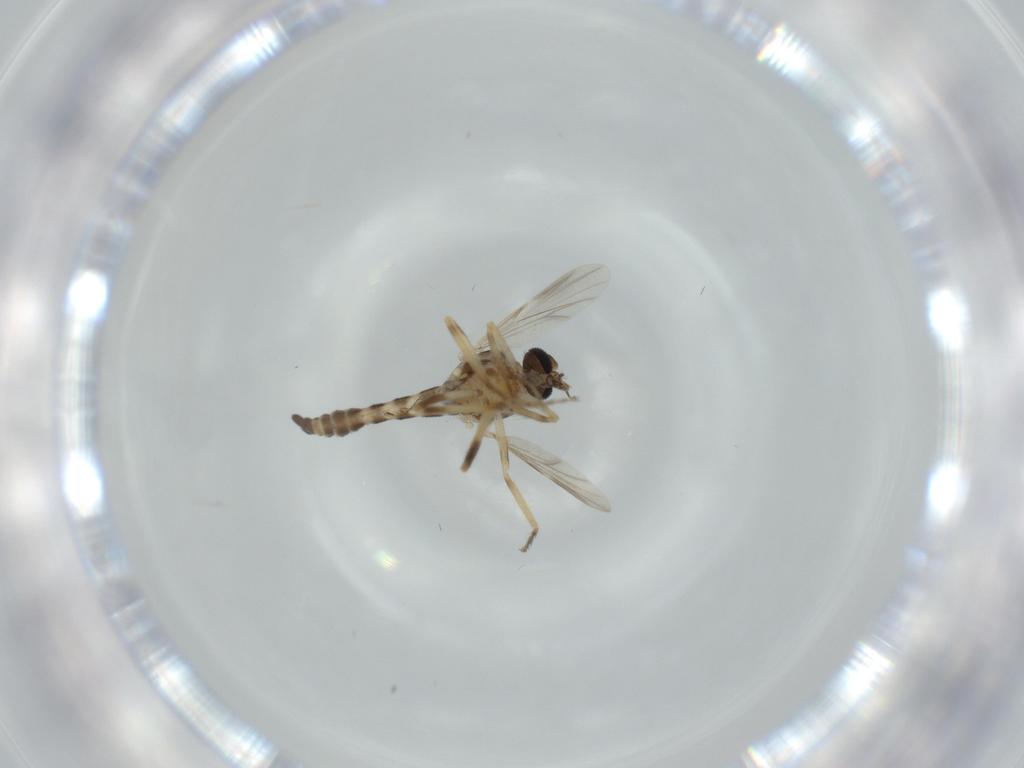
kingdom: Animalia
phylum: Arthropoda
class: Insecta
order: Diptera
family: Ceratopogonidae
